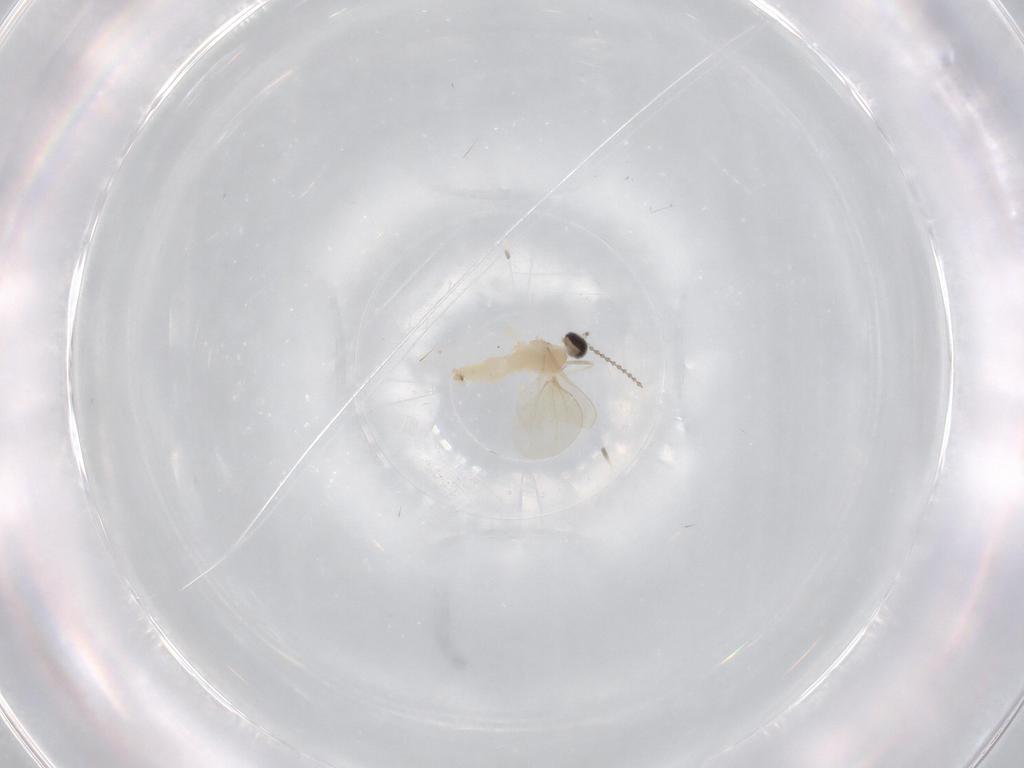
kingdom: Animalia
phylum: Arthropoda
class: Insecta
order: Diptera
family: Cecidomyiidae
